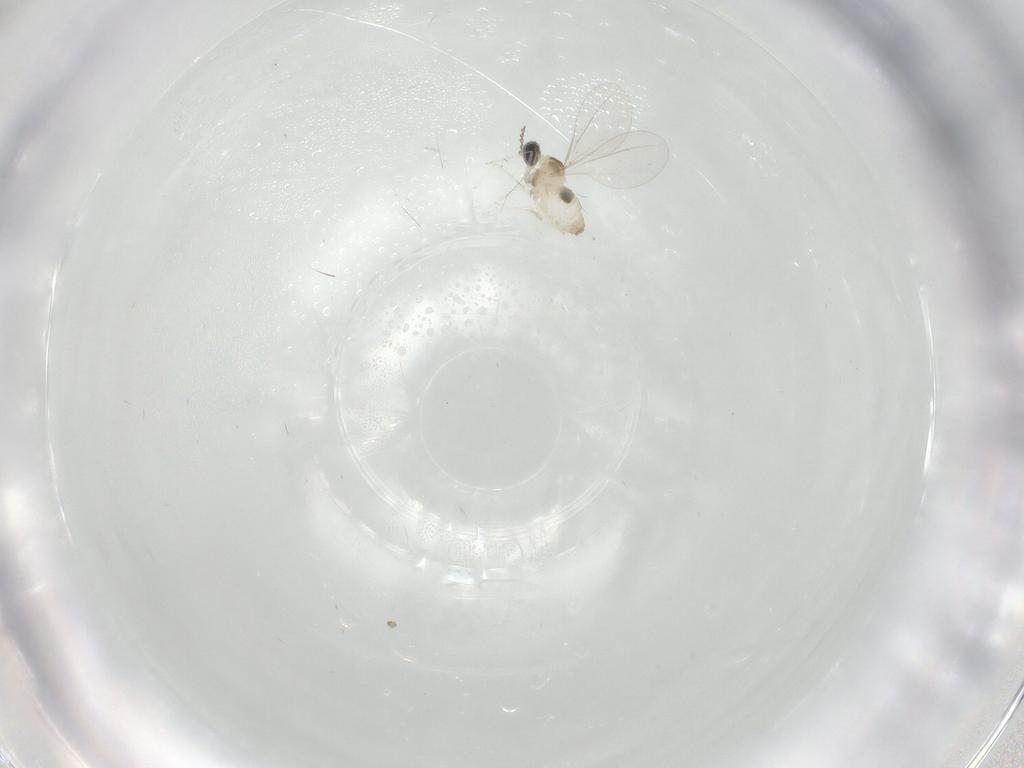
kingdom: Animalia
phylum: Arthropoda
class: Insecta
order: Diptera
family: Cecidomyiidae
